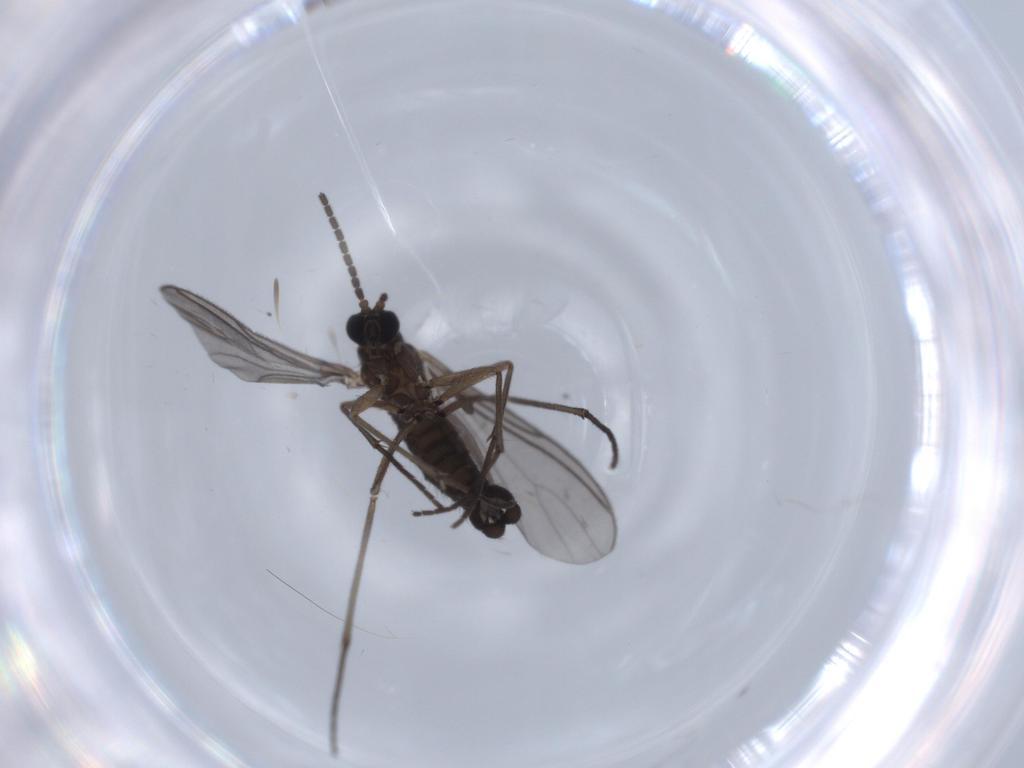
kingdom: Animalia
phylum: Arthropoda
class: Insecta
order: Diptera
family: Sciaridae
